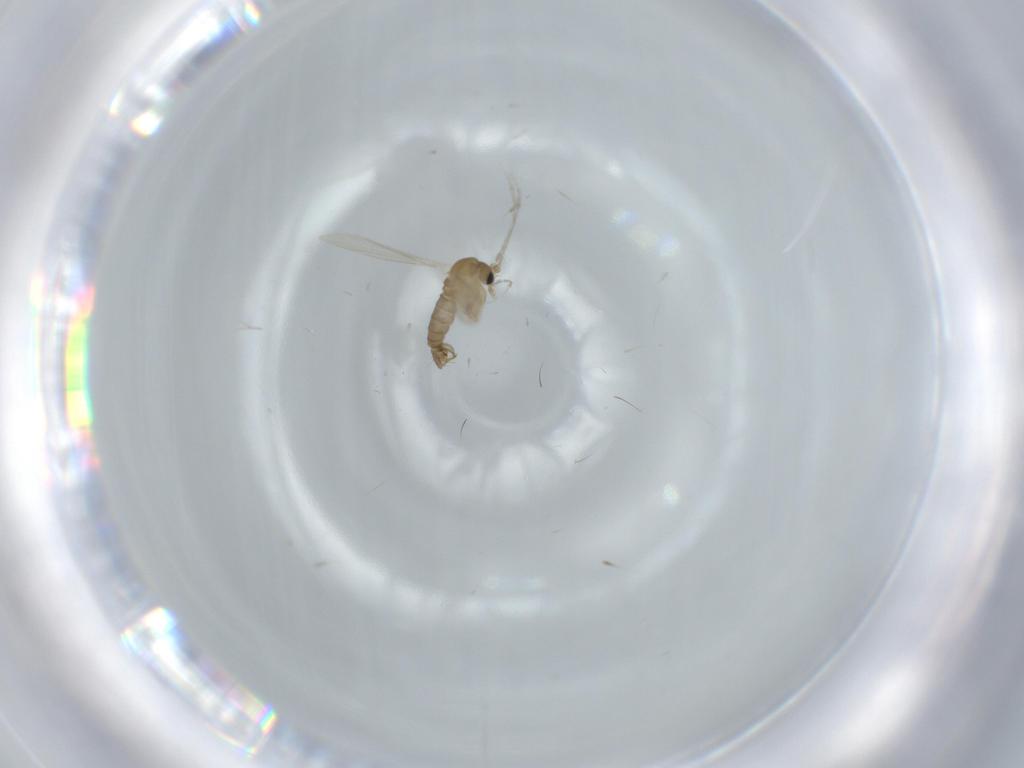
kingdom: Animalia
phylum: Arthropoda
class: Insecta
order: Diptera
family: Psychodidae
